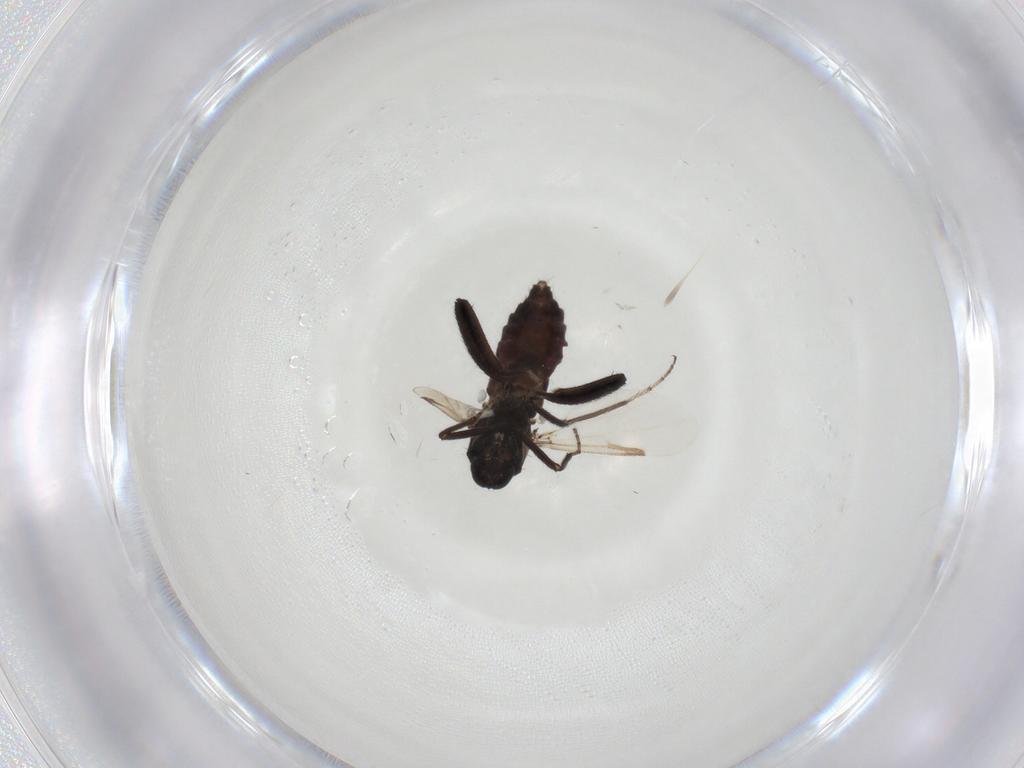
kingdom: Animalia
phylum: Arthropoda
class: Insecta
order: Diptera
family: Ceratopogonidae
